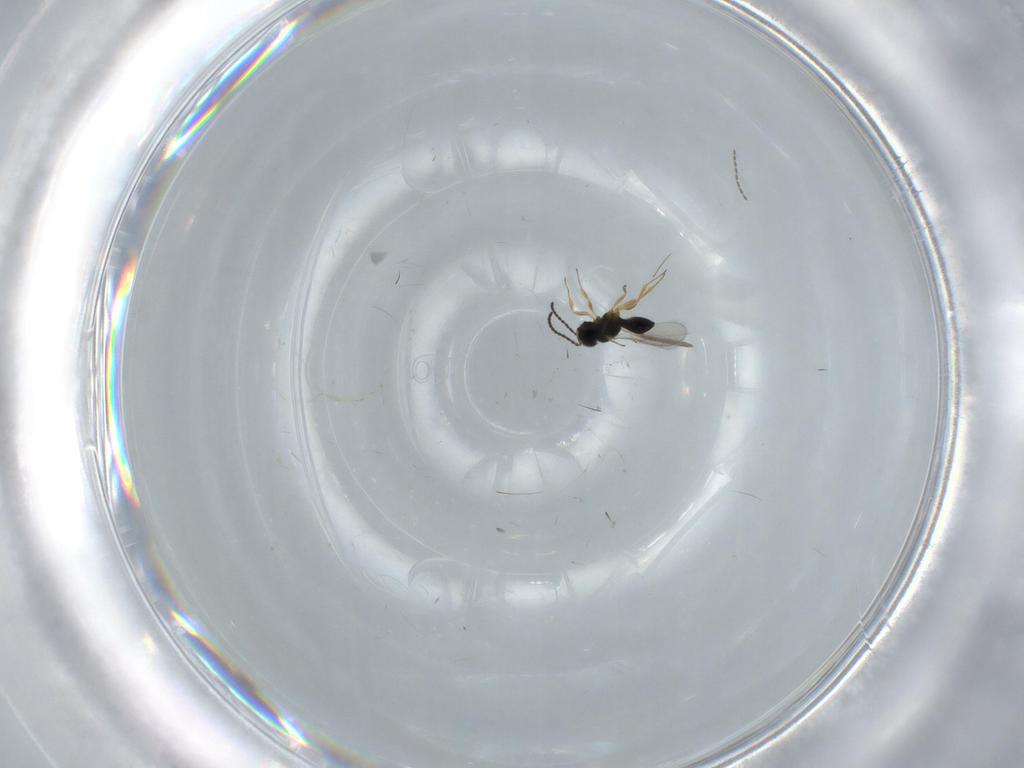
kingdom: Animalia
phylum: Arthropoda
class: Insecta
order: Hymenoptera
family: Scelionidae
